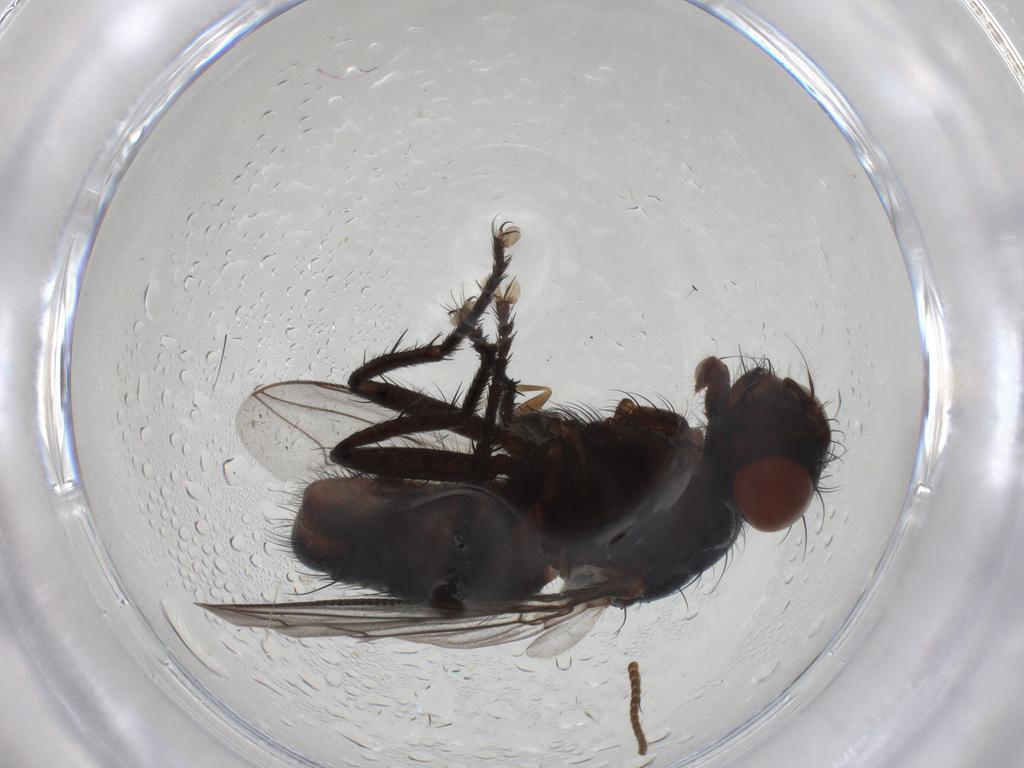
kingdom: Animalia
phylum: Arthropoda
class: Insecta
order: Diptera
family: Sarcophagidae
